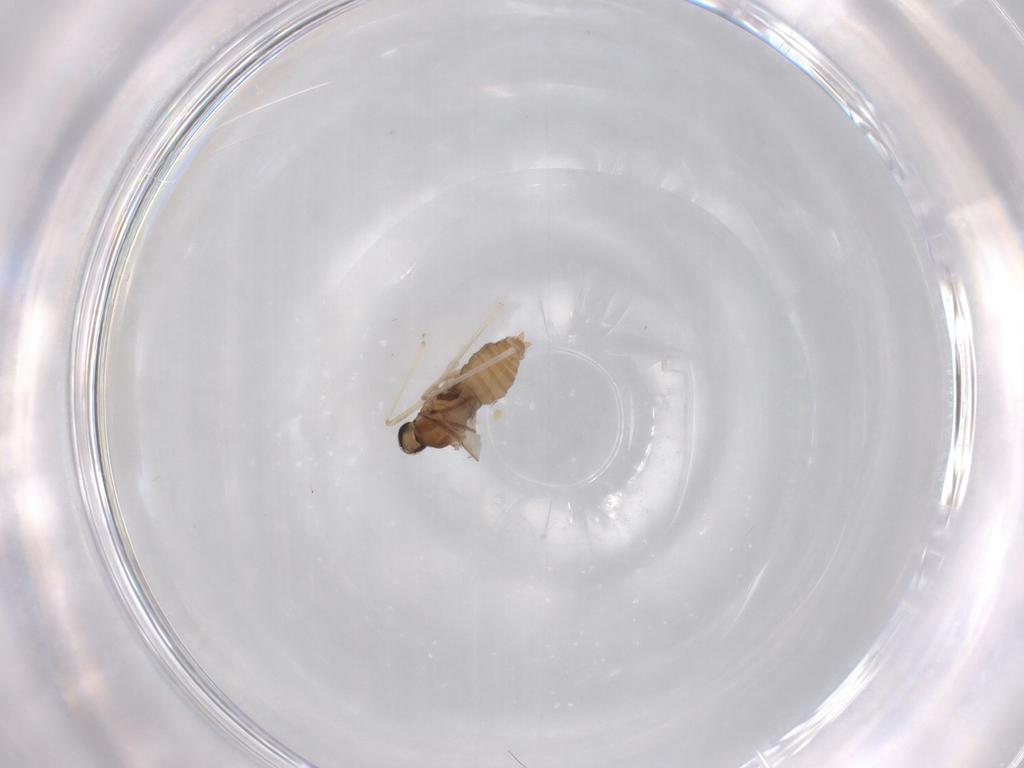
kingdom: Animalia
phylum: Arthropoda
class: Insecta
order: Diptera
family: Cecidomyiidae
